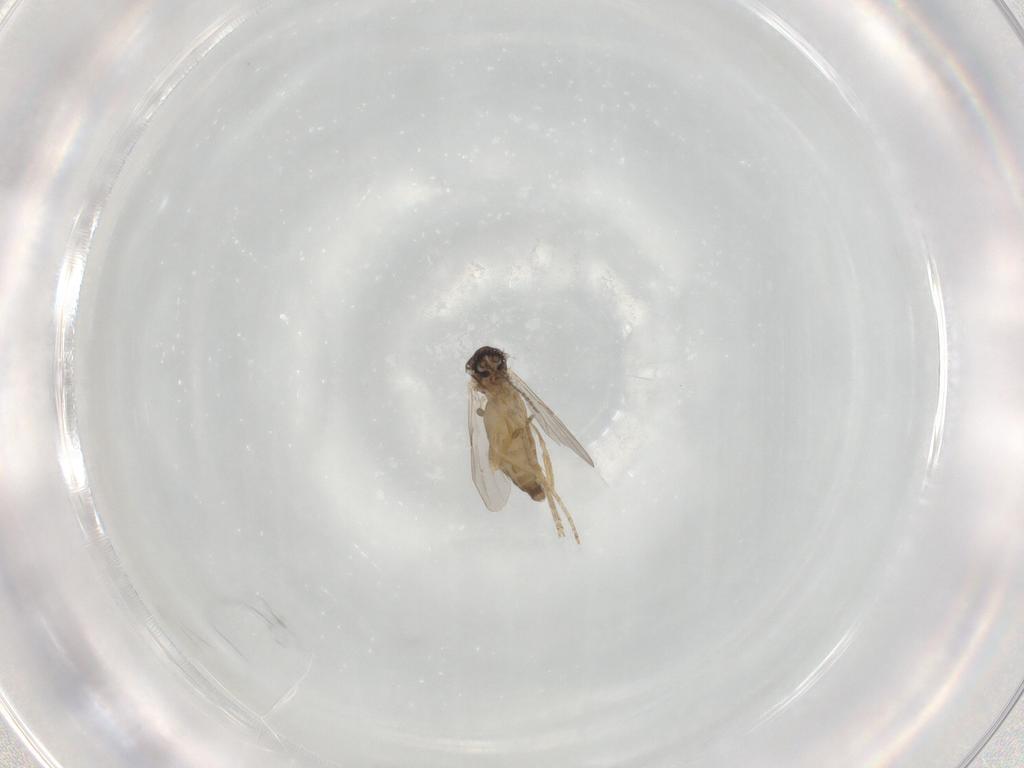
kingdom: Animalia
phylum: Arthropoda
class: Insecta
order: Diptera
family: Ceratopogonidae
